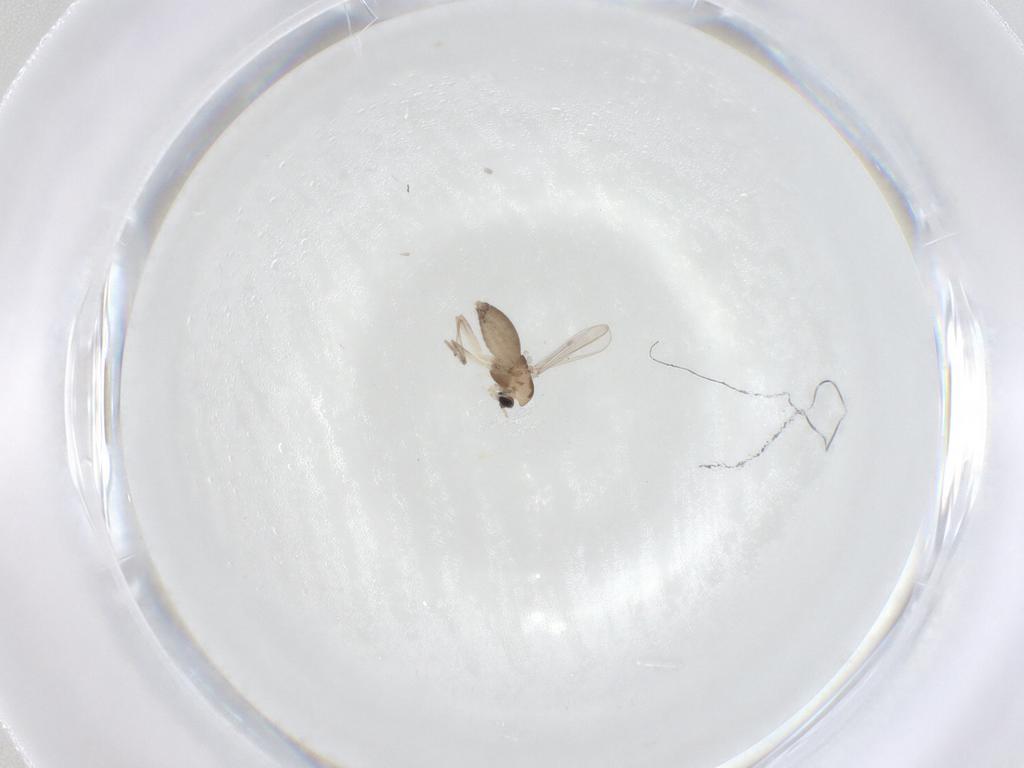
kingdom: Animalia
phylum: Arthropoda
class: Insecta
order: Diptera
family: Chironomidae
